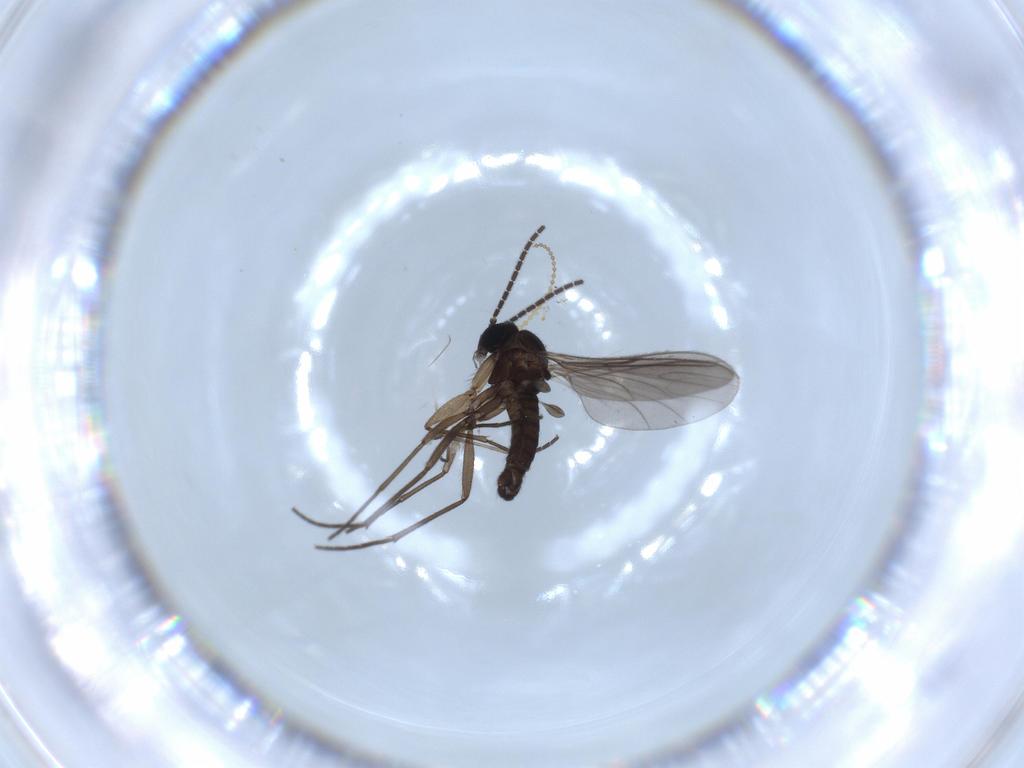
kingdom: Animalia
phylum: Arthropoda
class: Insecta
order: Diptera
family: Sciaridae
